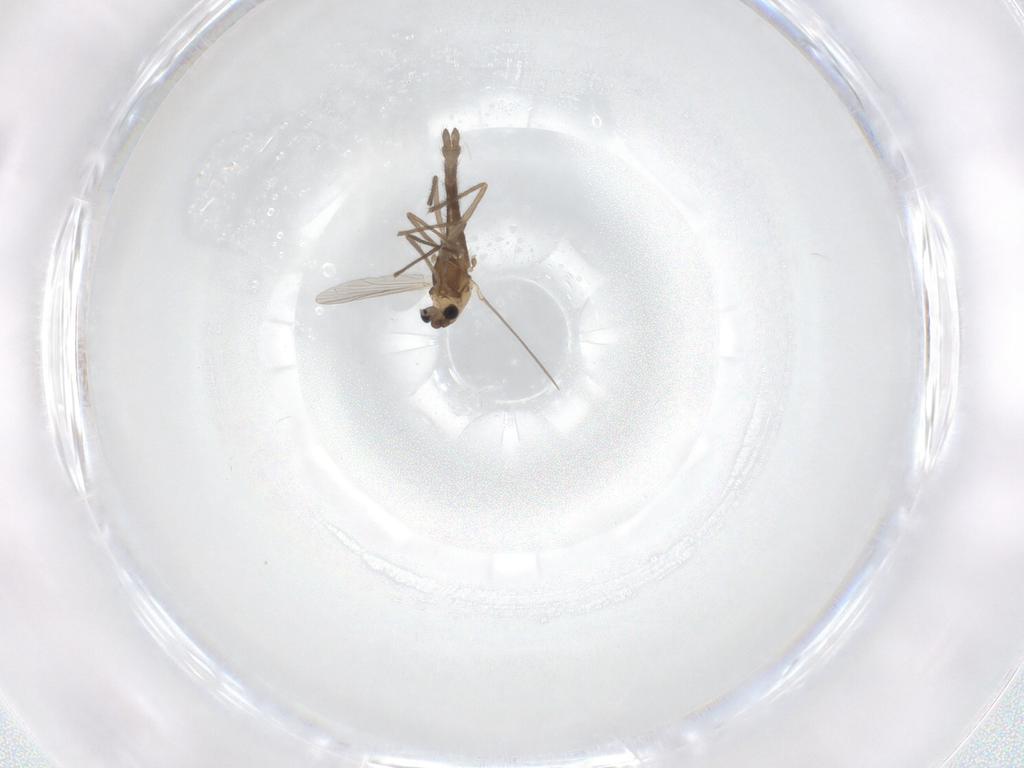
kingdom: Animalia
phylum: Arthropoda
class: Insecta
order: Diptera
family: Chironomidae
